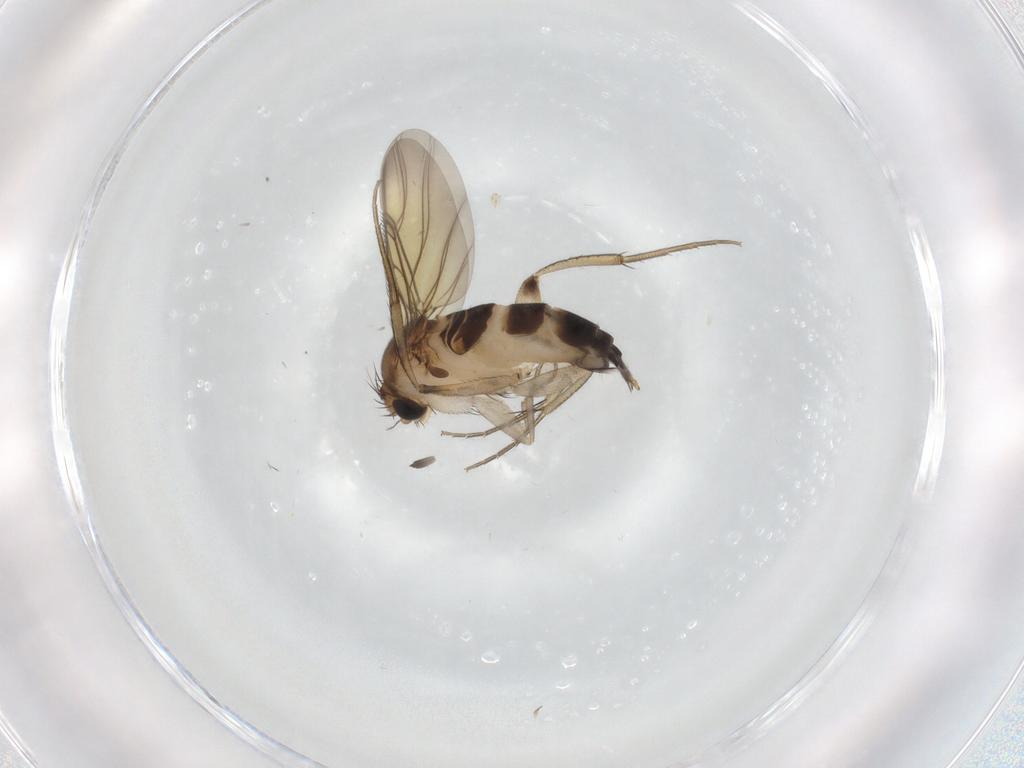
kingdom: Animalia
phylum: Arthropoda
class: Insecta
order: Diptera
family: Phoridae
